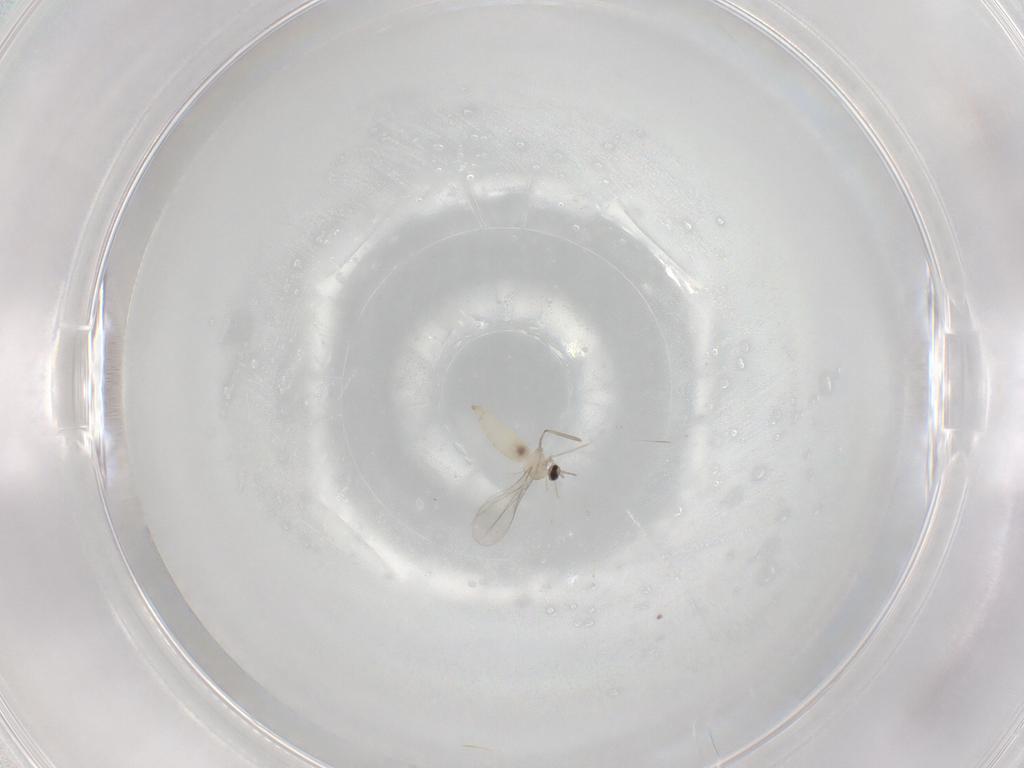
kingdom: Animalia
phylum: Arthropoda
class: Insecta
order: Diptera
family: Cecidomyiidae
